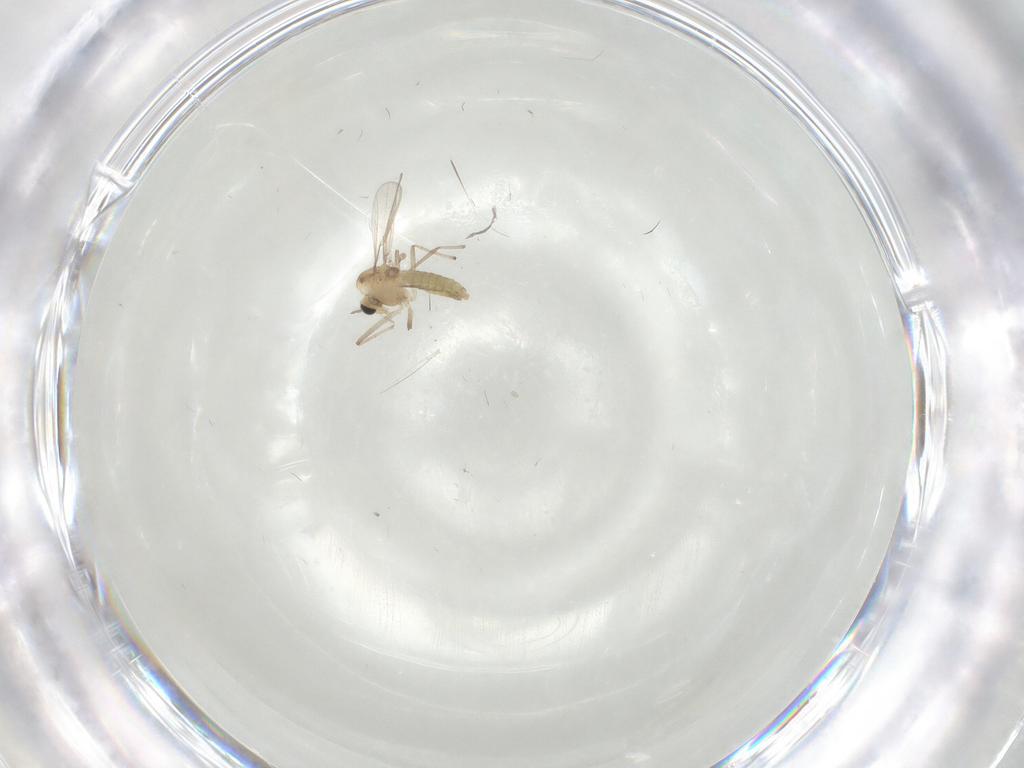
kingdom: Animalia
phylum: Arthropoda
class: Insecta
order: Diptera
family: Chironomidae
